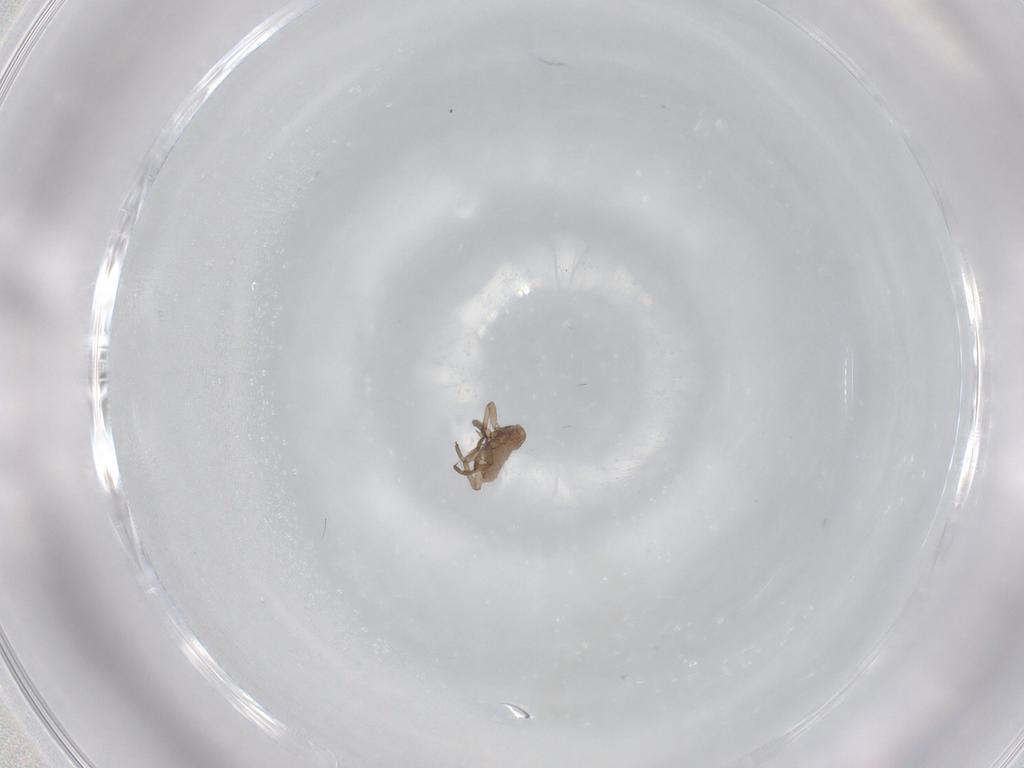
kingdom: Animalia
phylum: Arthropoda
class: Insecta
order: Hemiptera
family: Aphididae
